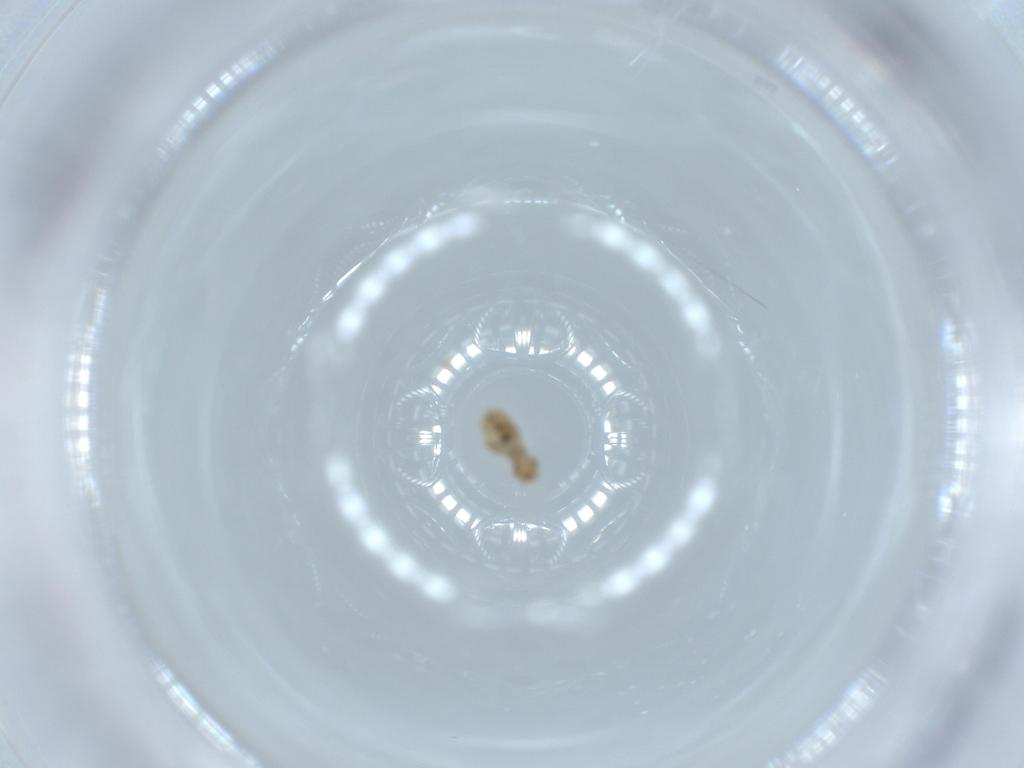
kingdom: Animalia
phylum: Arthropoda
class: Insecta
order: Psocodea
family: Liposcelididae
